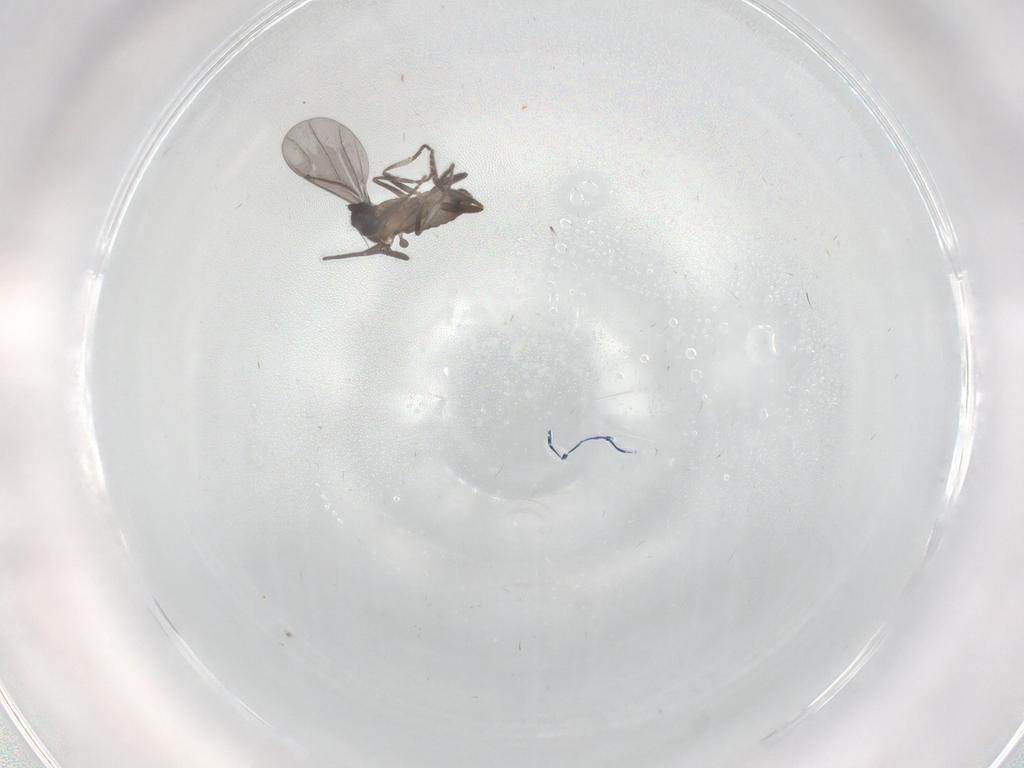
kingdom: Animalia
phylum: Arthropoda
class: Insecta
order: Diptera
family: Phoridae
